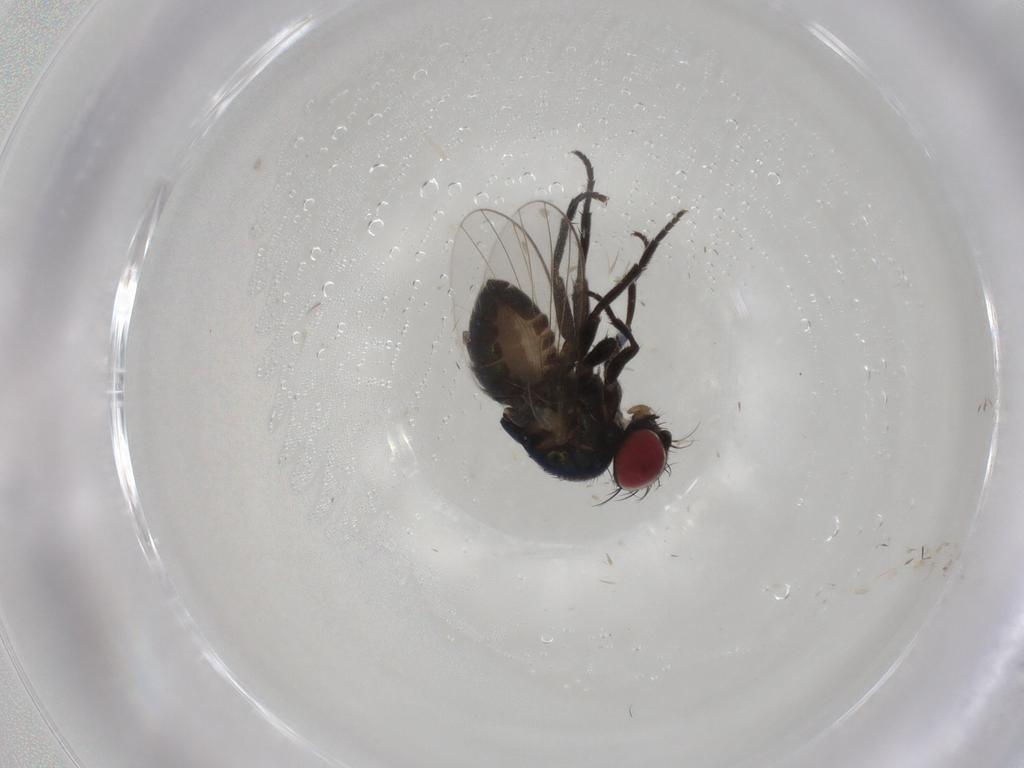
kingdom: Animalia
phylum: Arthropoda
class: Insecta
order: Diptera
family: Agromyzidae
